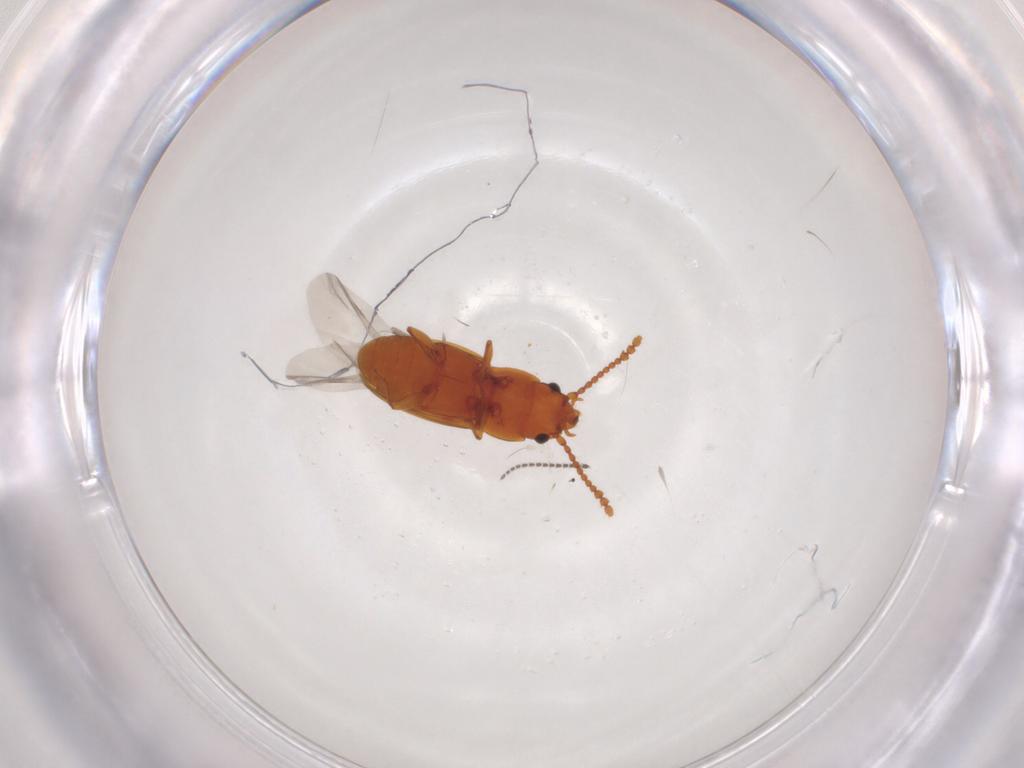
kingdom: Animalia
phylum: Arthropoda
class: Insecta
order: Coleoptera
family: Laemophloeidae
